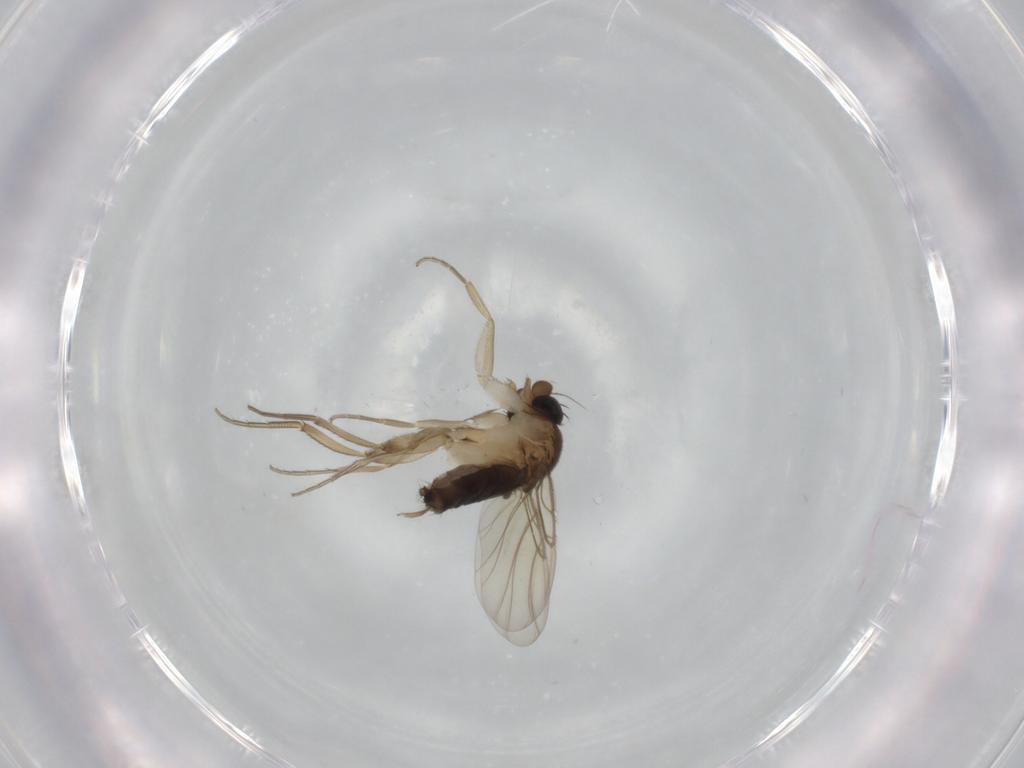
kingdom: Animalia
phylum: Arthropoda
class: Insecta
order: Diptera
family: Phoridae
